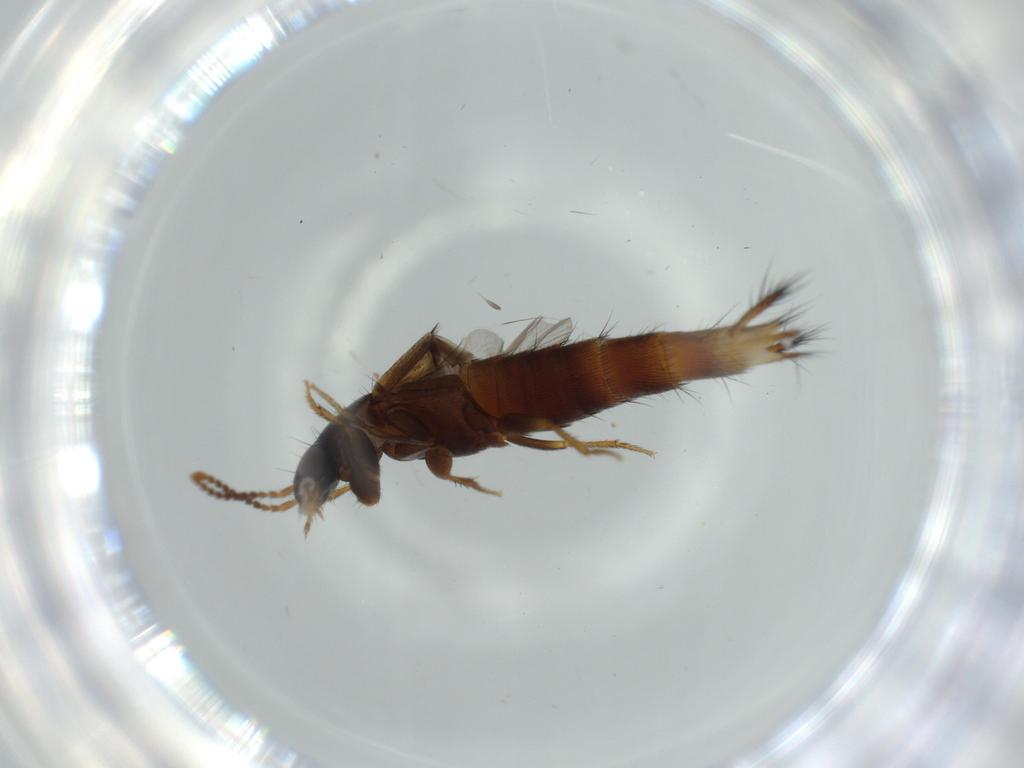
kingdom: Animalia
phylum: Arthropoda
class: Insecta
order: Coleoptera
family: Staphylinidae
